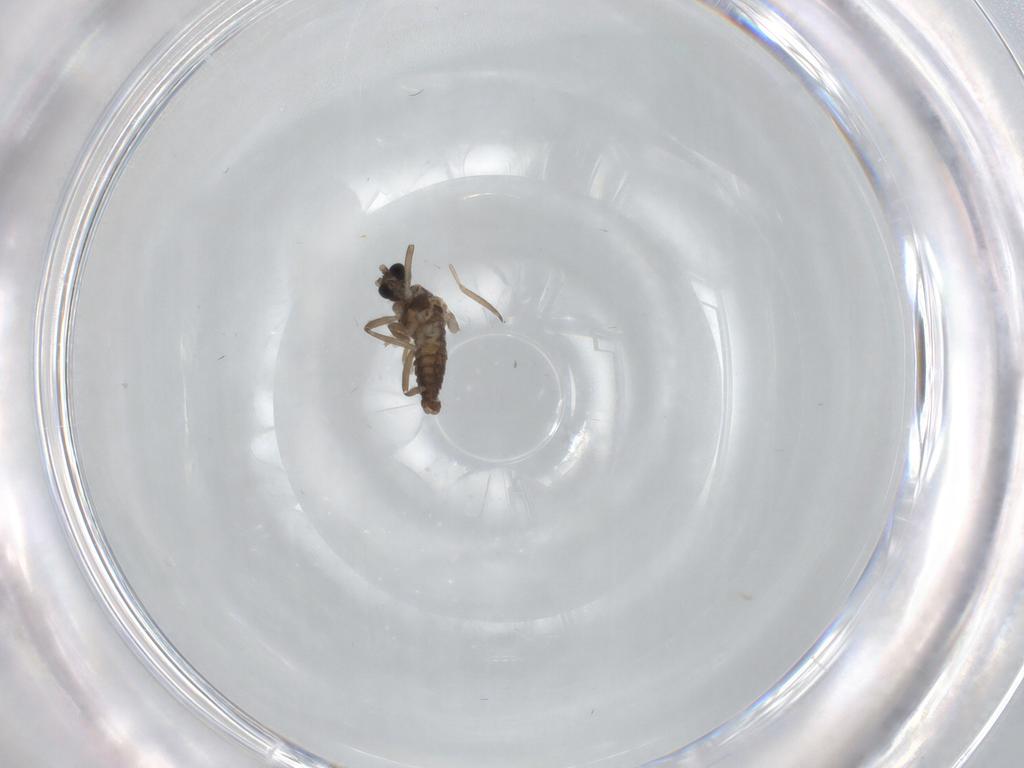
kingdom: Animalia
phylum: Arthropoda
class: Insecta
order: Diptera
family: Cecidomyiidae
